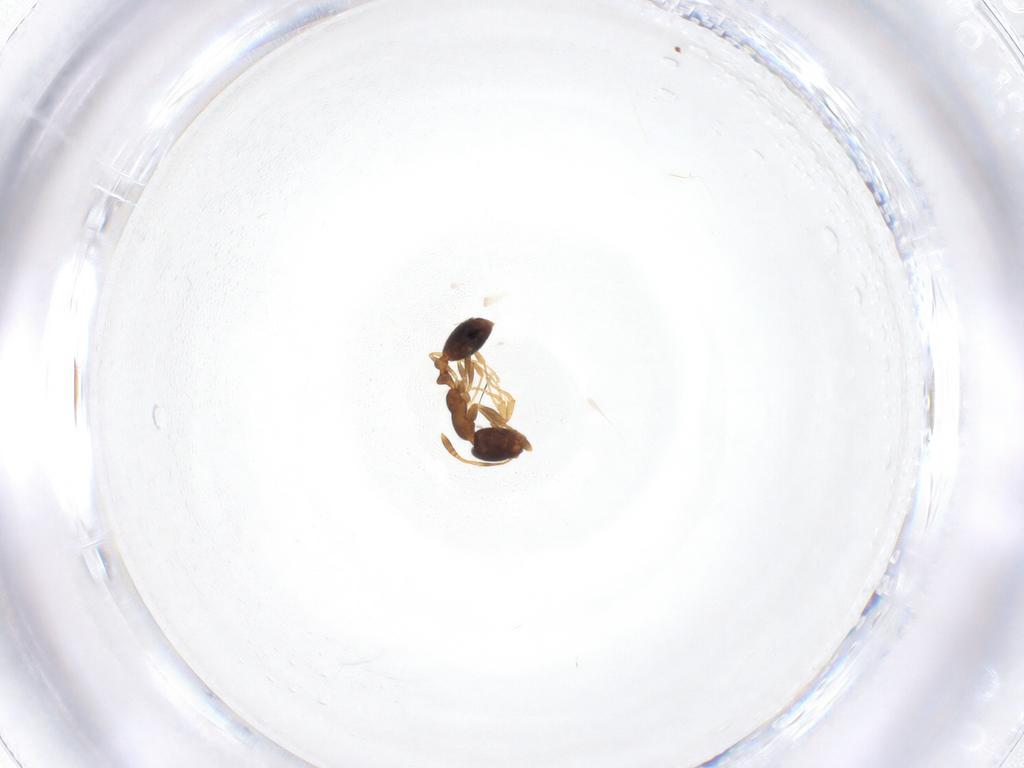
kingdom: Animalia
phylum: Arthropoda
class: Insecta
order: Hymenoptera
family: Formicidae
